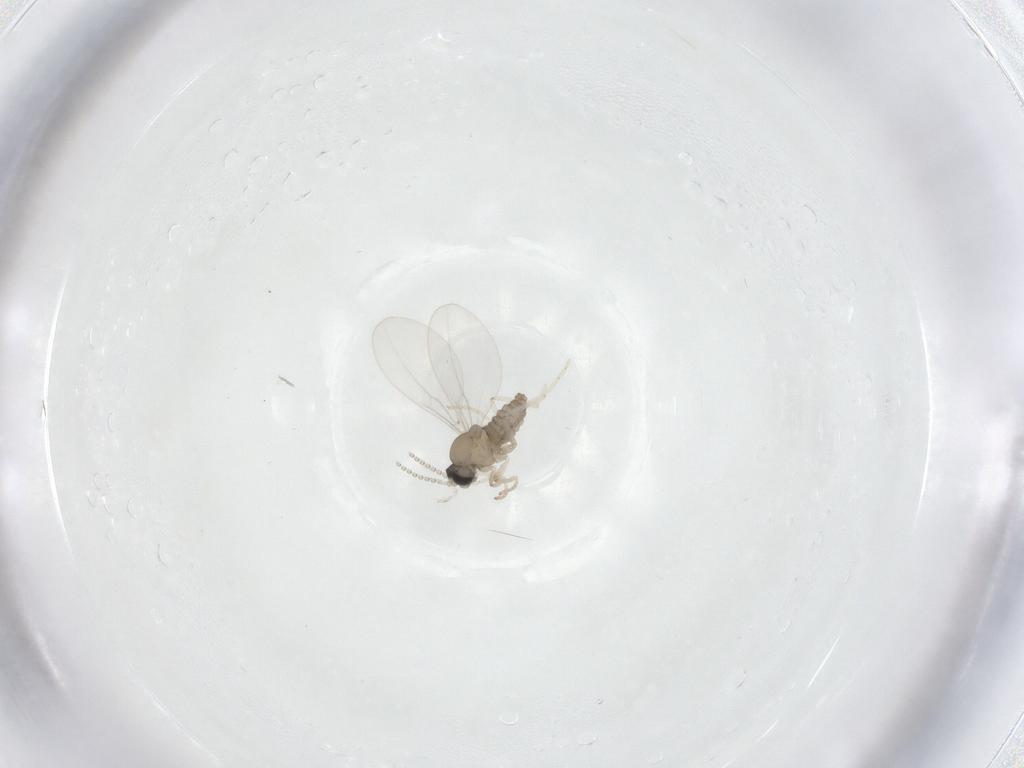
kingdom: Animalia
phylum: Arthropoda
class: Insecta
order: Diptera
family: Cecidomyiidae
